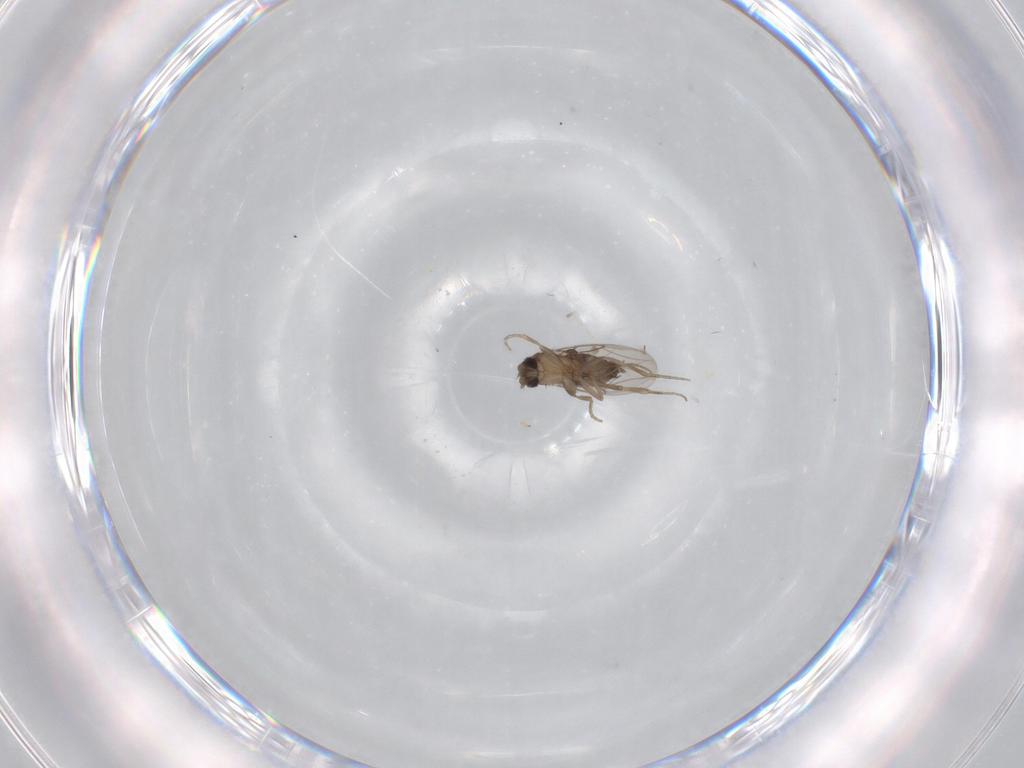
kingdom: Animalia
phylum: Arthropoda
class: Insecta
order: Diptera
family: Phoridae
